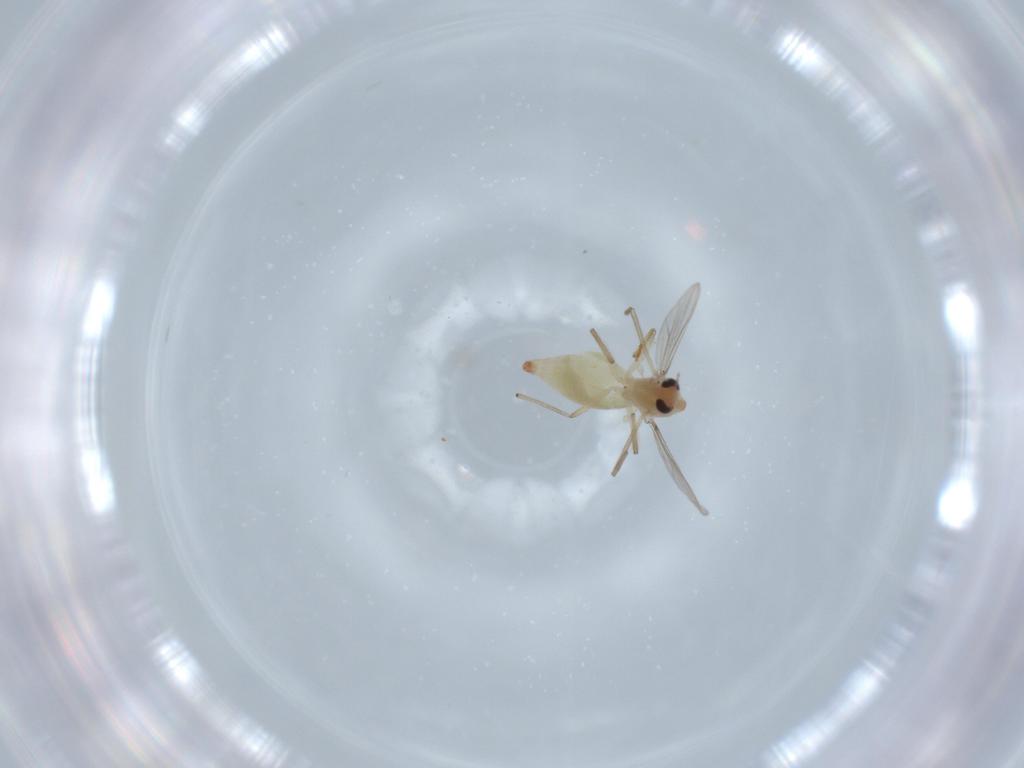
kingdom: Animalia
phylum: Arthropoda
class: Insecta
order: Diptera
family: Chironomidae
